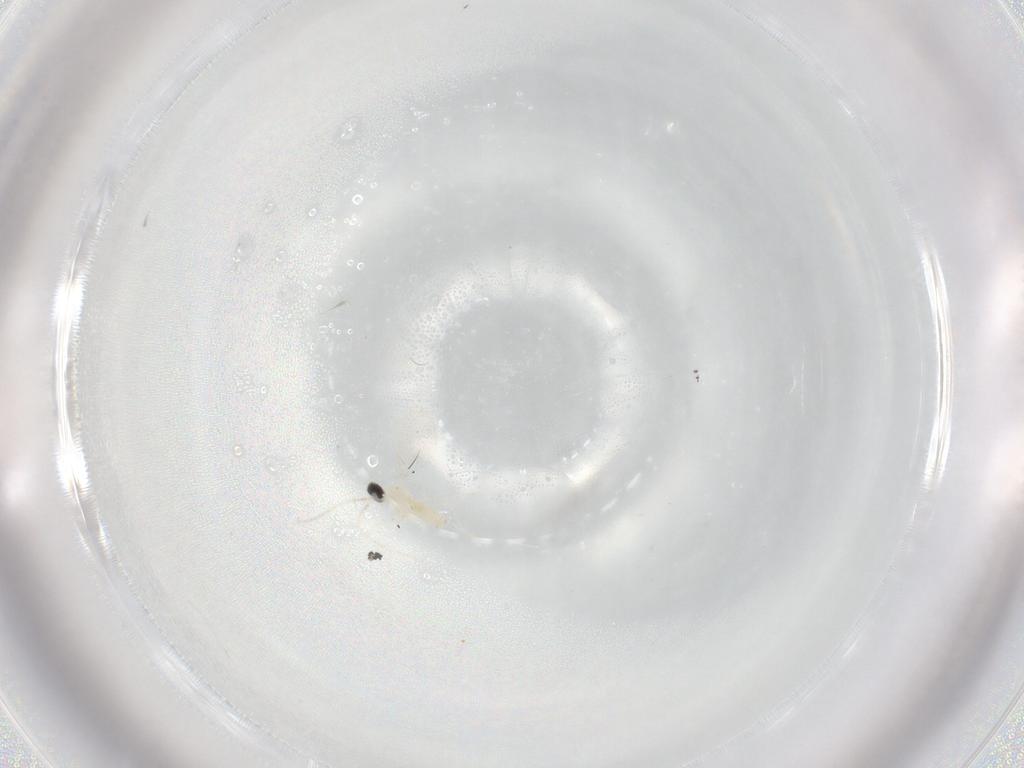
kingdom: Animalia
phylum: Arthropoda
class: Insecta
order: Diptera
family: Cecidomyiidae
